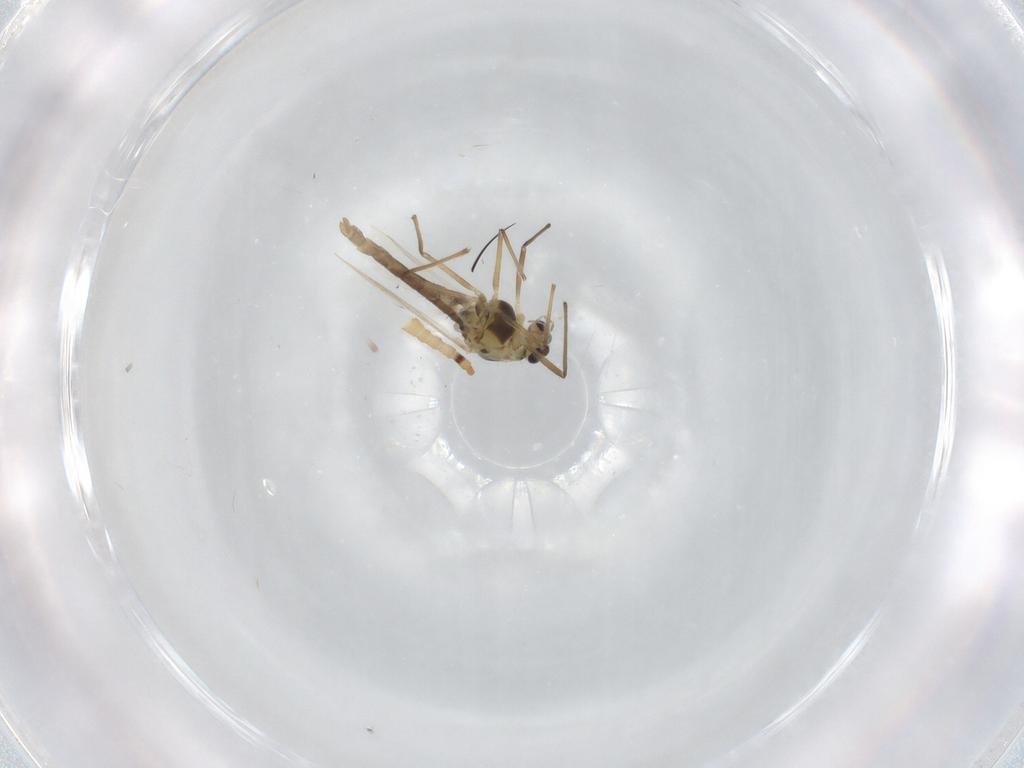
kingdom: Animalia
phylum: Arthropoda
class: Insecta
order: Diptera
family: Chironomidae
